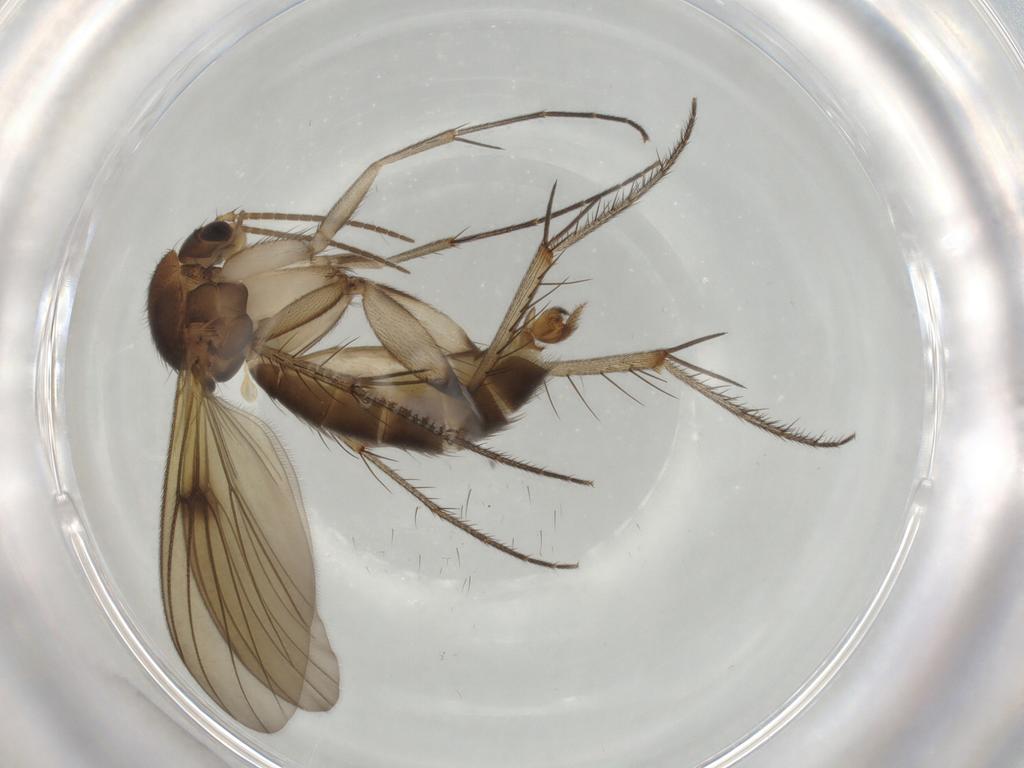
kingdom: Animalia
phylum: Arthropoda
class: Insecta
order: Diptera
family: Mycetophilidae
